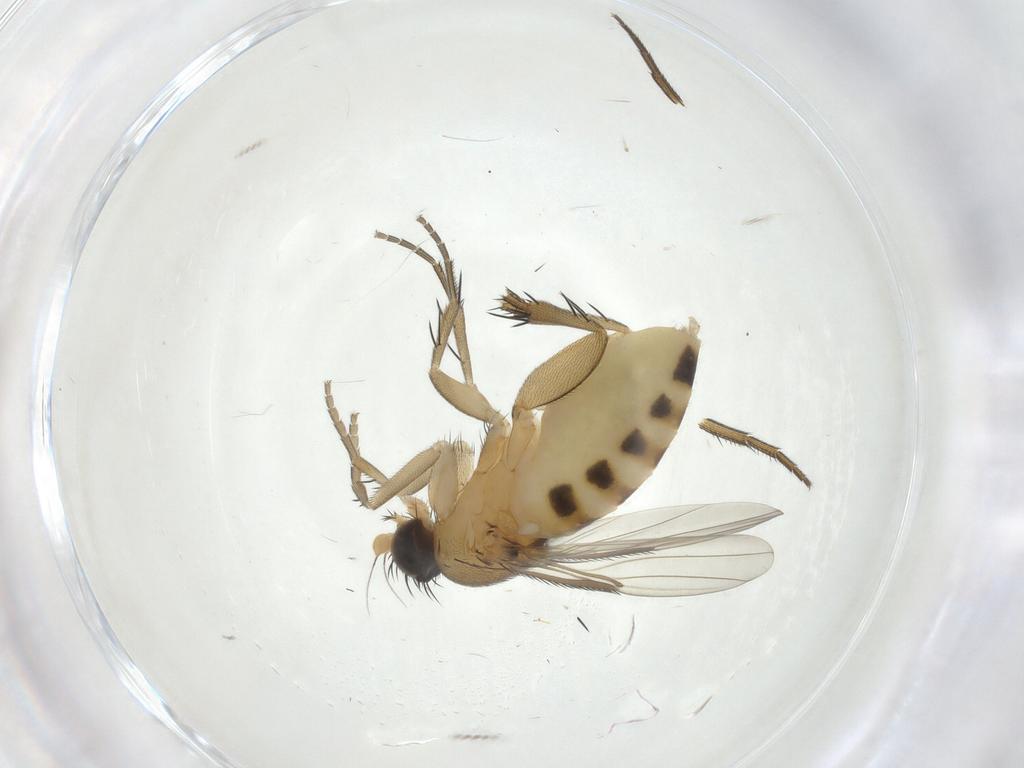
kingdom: Animalia
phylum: Arthropoda
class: Insecta
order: Diptera
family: Phoridae
